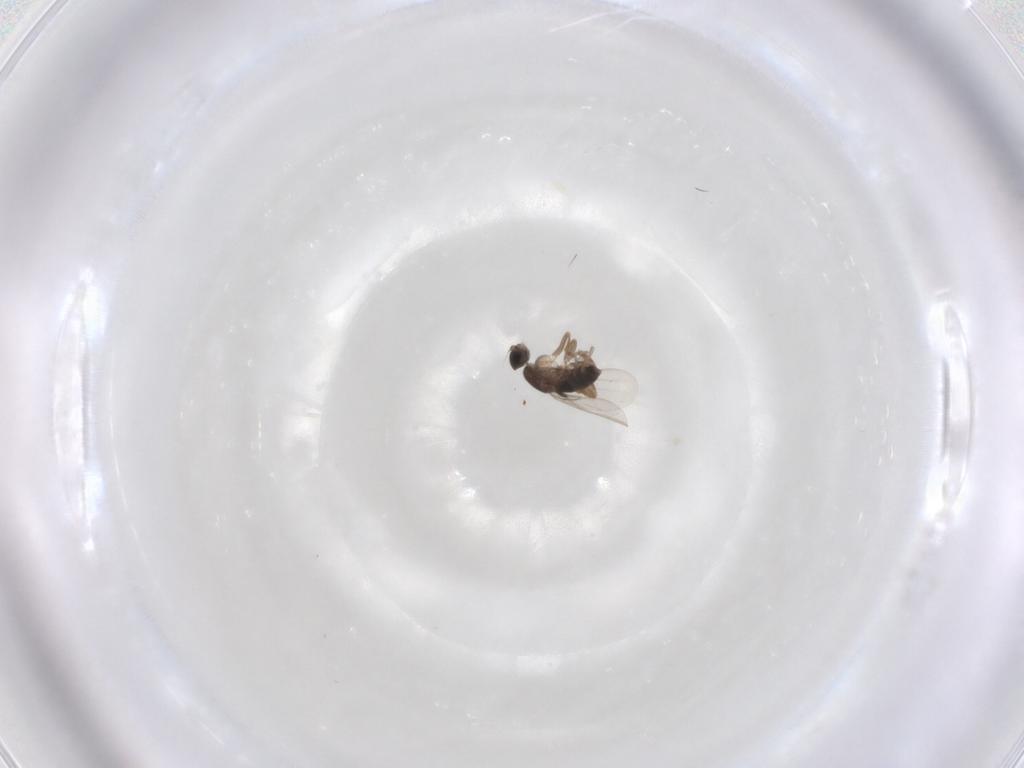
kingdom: Animalia
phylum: Arthropoda
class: Insecta
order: Diptera
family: Phoridae
